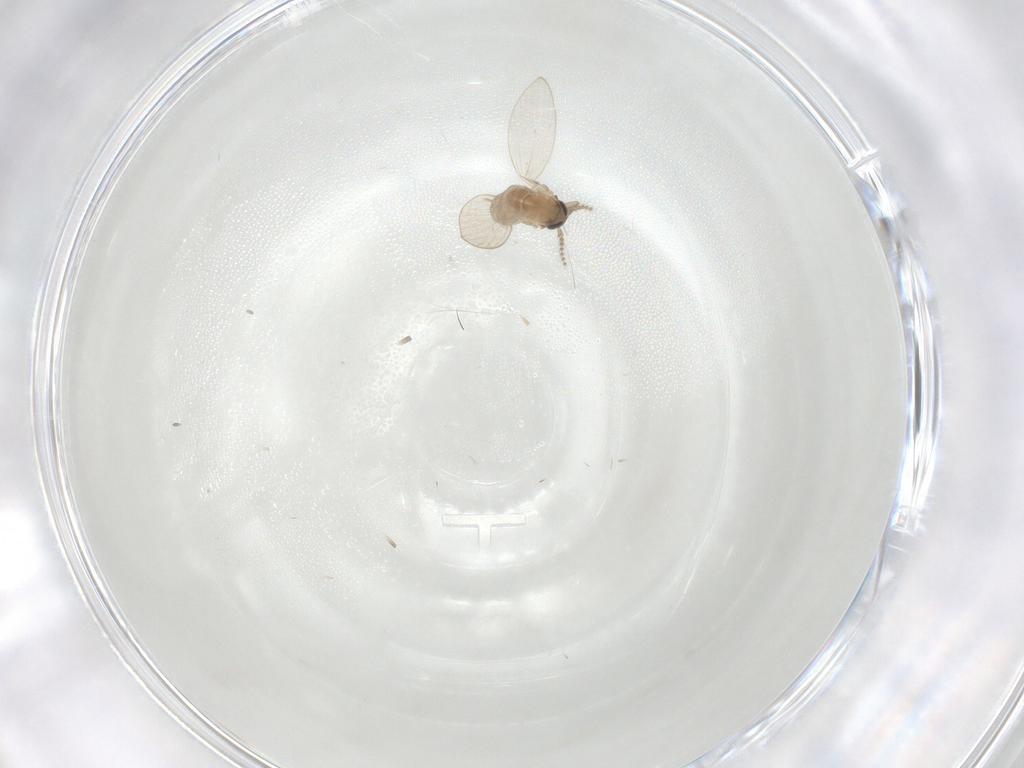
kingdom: Animalia
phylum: Arthropoda
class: Insecta
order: Diptera
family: Psychodidae
